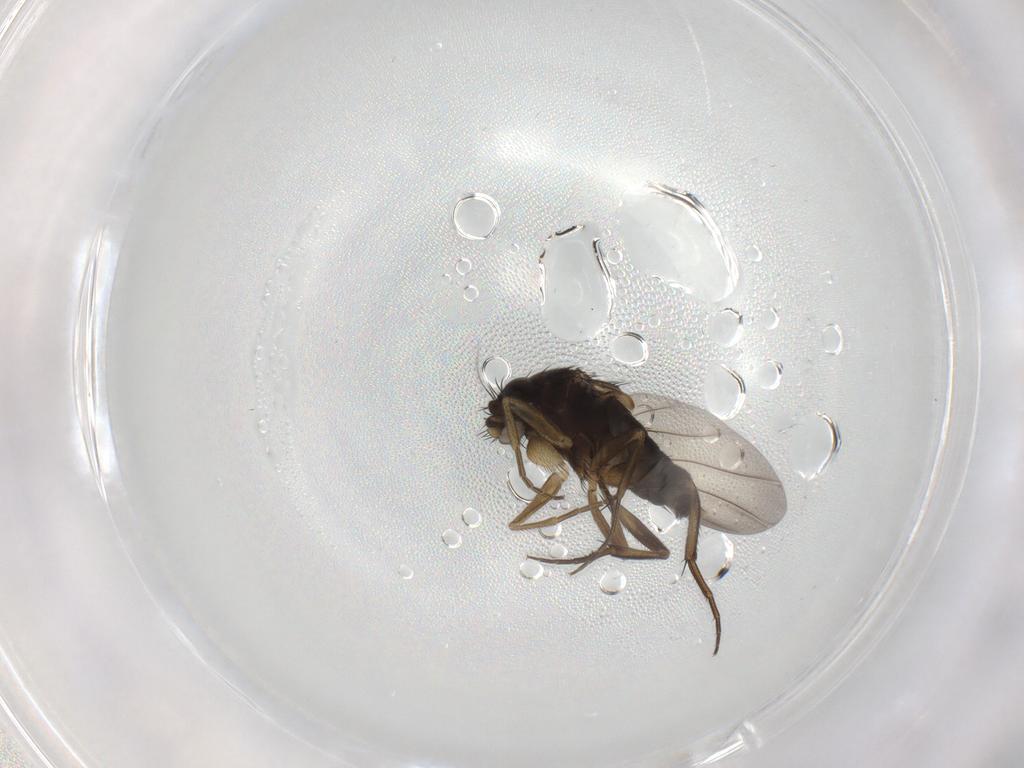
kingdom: Animalia
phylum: Arthropoda
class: Insecta
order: Diptera
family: Phoridae
